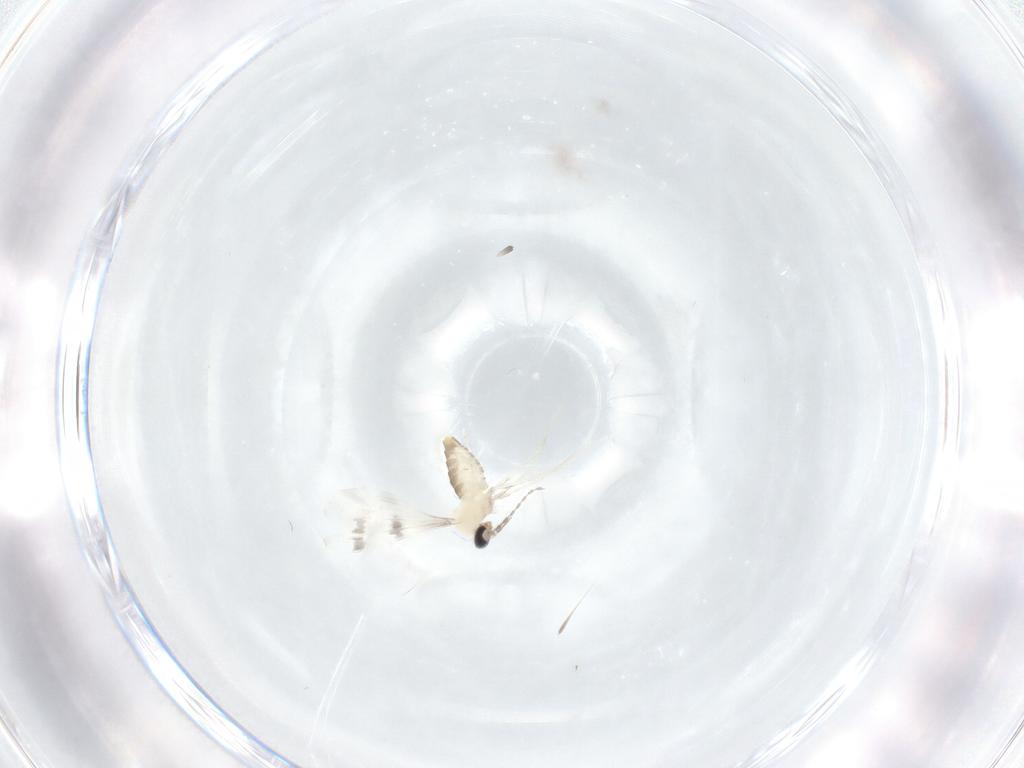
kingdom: Animalia
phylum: Arthropoda
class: Insecta
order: Diptera
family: Cecidomyiidae
